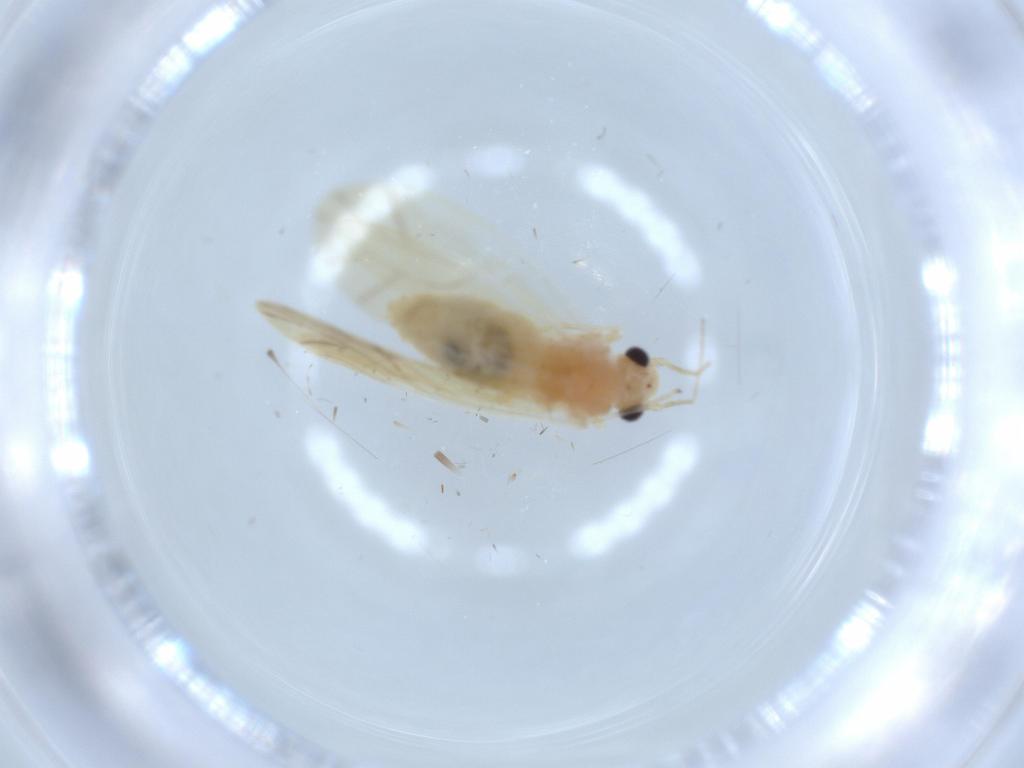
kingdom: Animalia
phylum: Arthropoda
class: Insecta
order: Psocodea
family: Caeciliusidae
